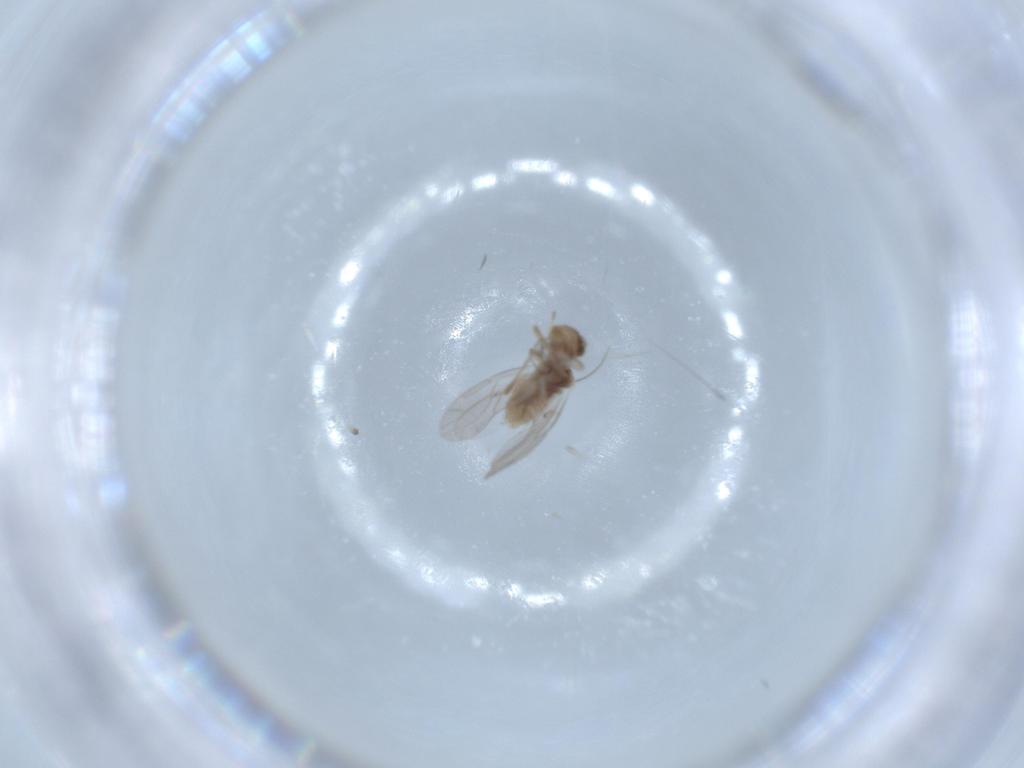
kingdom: Animalia
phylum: Arthropoda
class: Insecta
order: Psocodea
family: Peripsocidae
